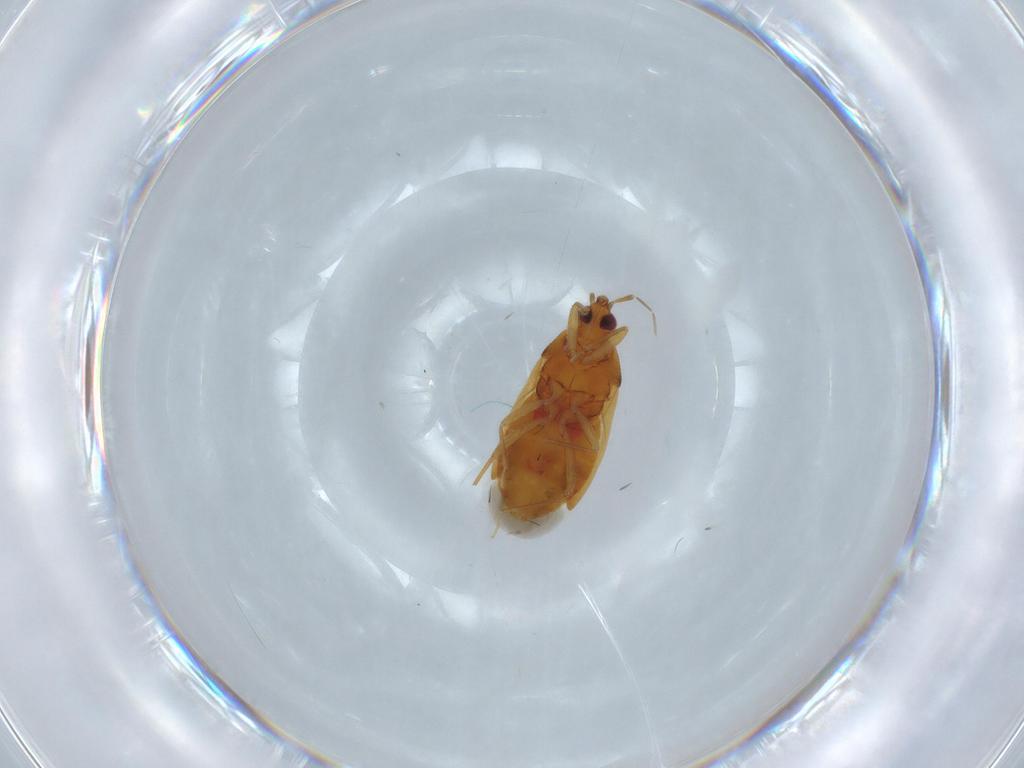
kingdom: Animalia
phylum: Arthropoda
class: Insecta
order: Hemiptera
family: Anthocoridae
